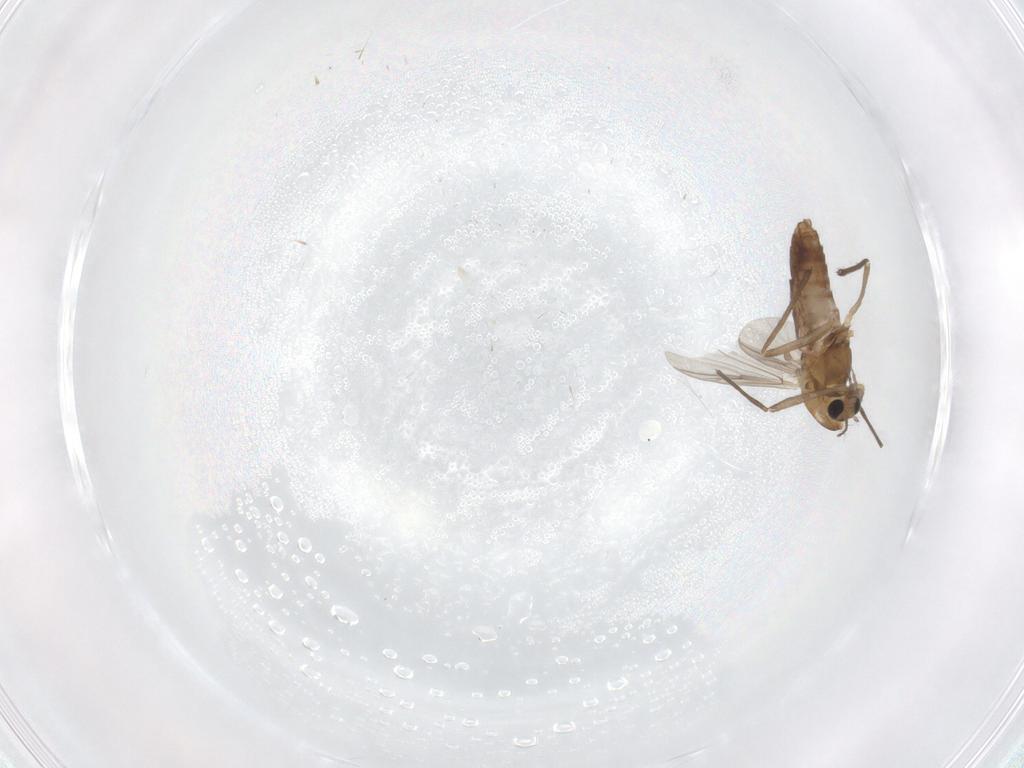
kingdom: Animalia
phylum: Arthropoda
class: Insecta
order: Diptera
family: Chironomidae
